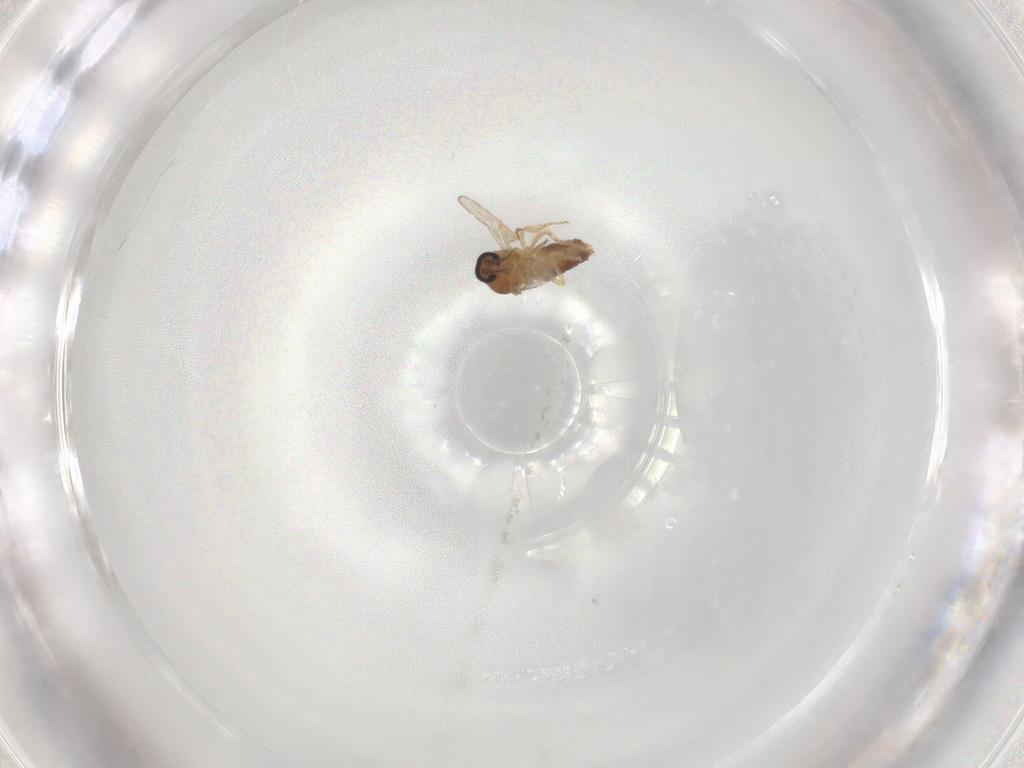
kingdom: Animalia
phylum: Arthropoda
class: Insecta
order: Diptera
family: Ceratopogonidae
